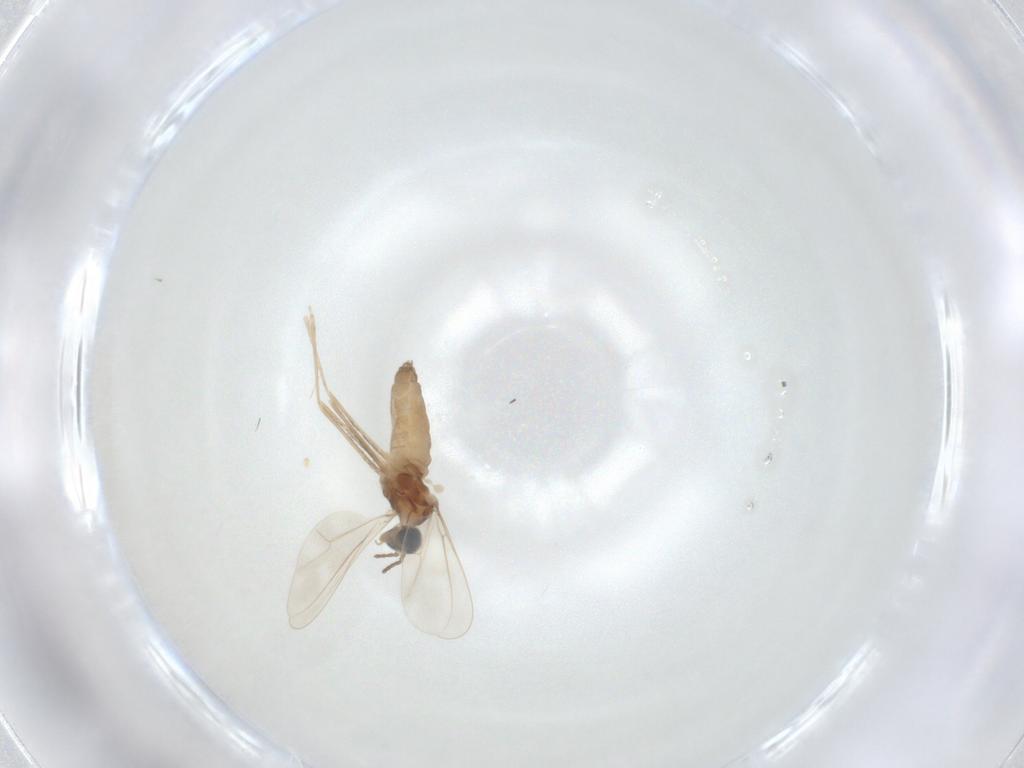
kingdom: Animalia
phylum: Arthropoda
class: Insecta
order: Diptera
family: Cecidomyiidae
